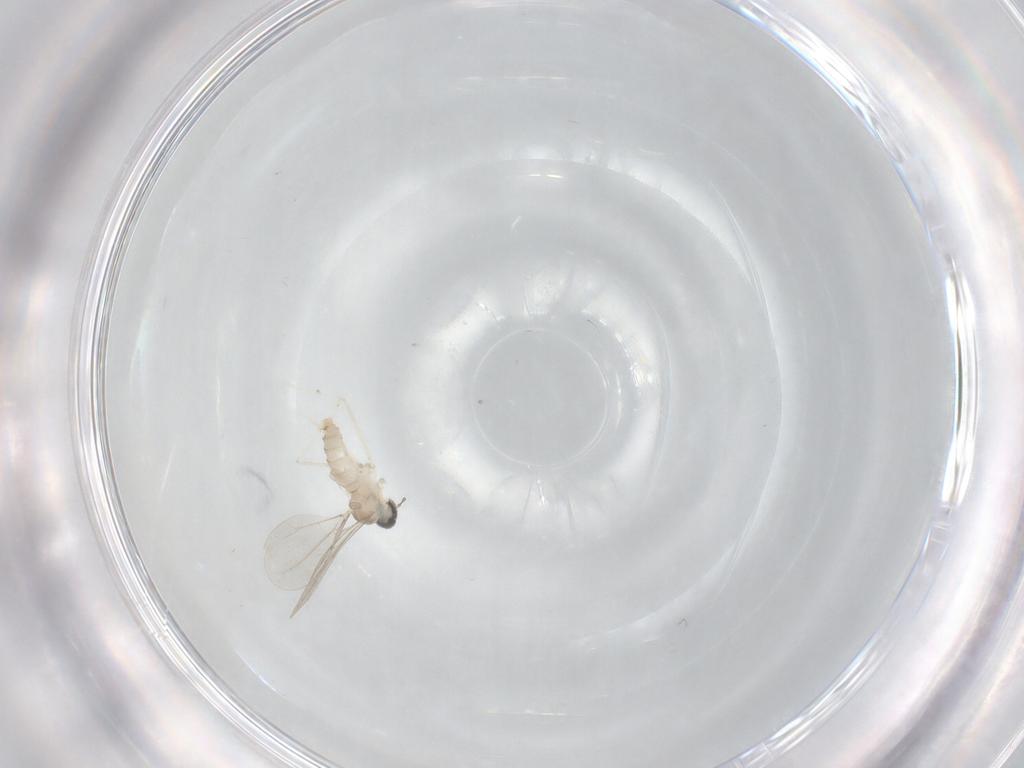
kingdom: Animalia
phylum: Arthropoda
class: Insecta
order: Diptera
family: Cecidomyiidae
